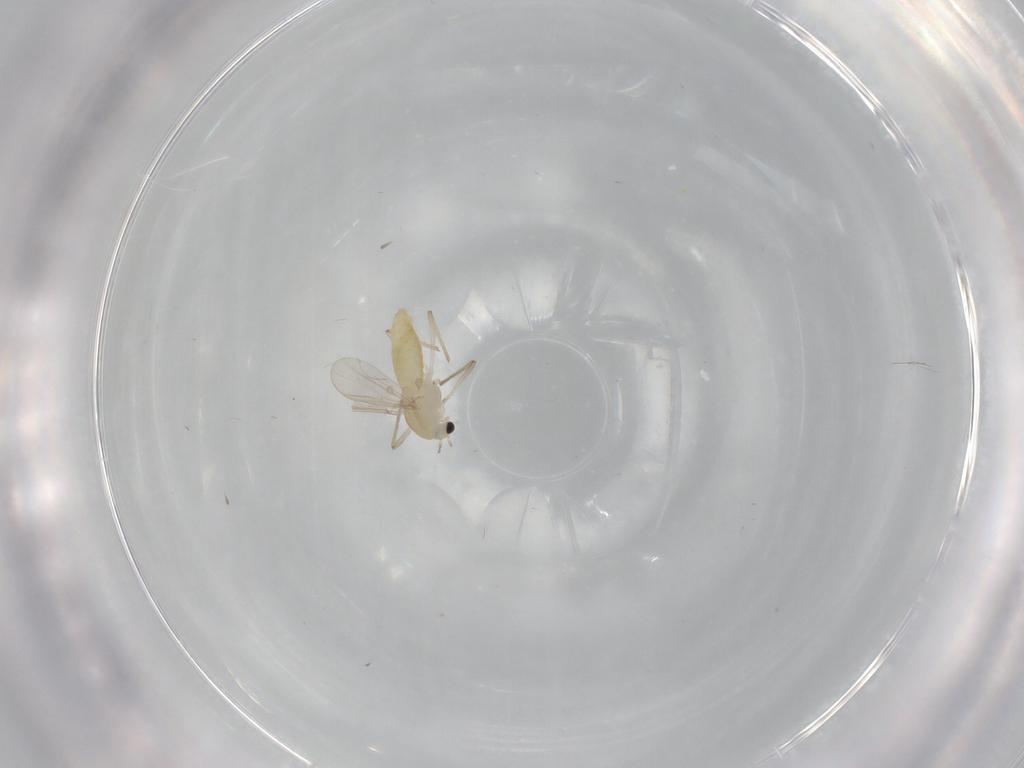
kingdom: Animalia
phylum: Arthropoda
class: Insecta
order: Diptera
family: Chironomidae
